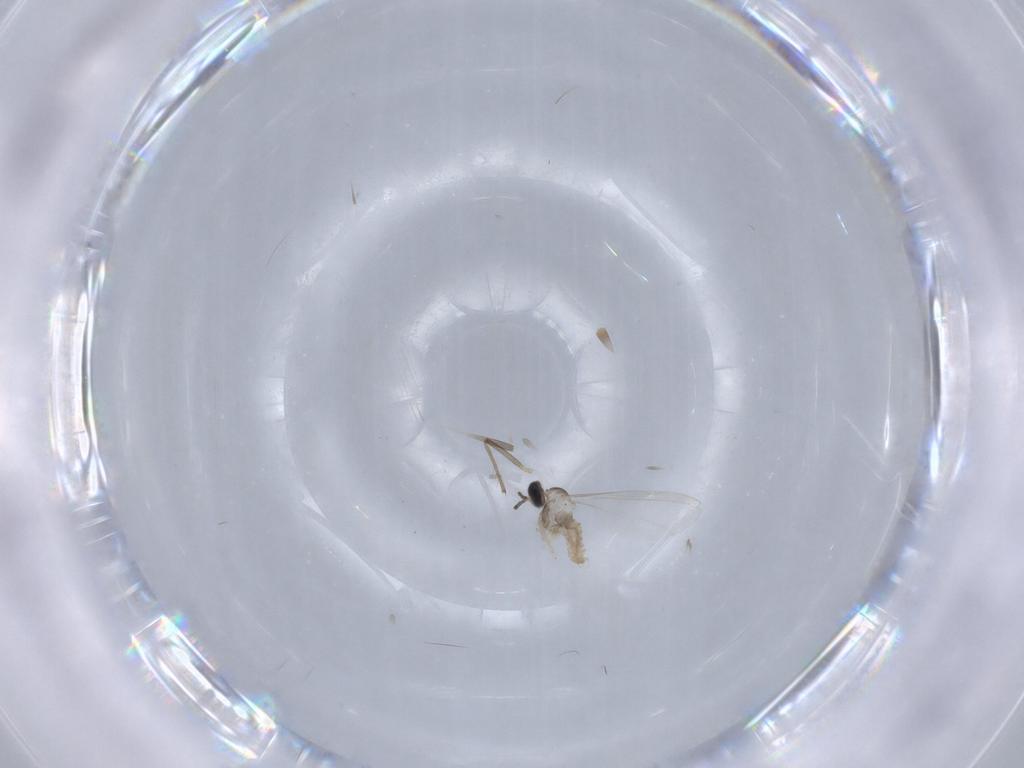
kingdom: Animalia
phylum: Arthropoda
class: Insecta
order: Diptera
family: Cecidomyiidae
